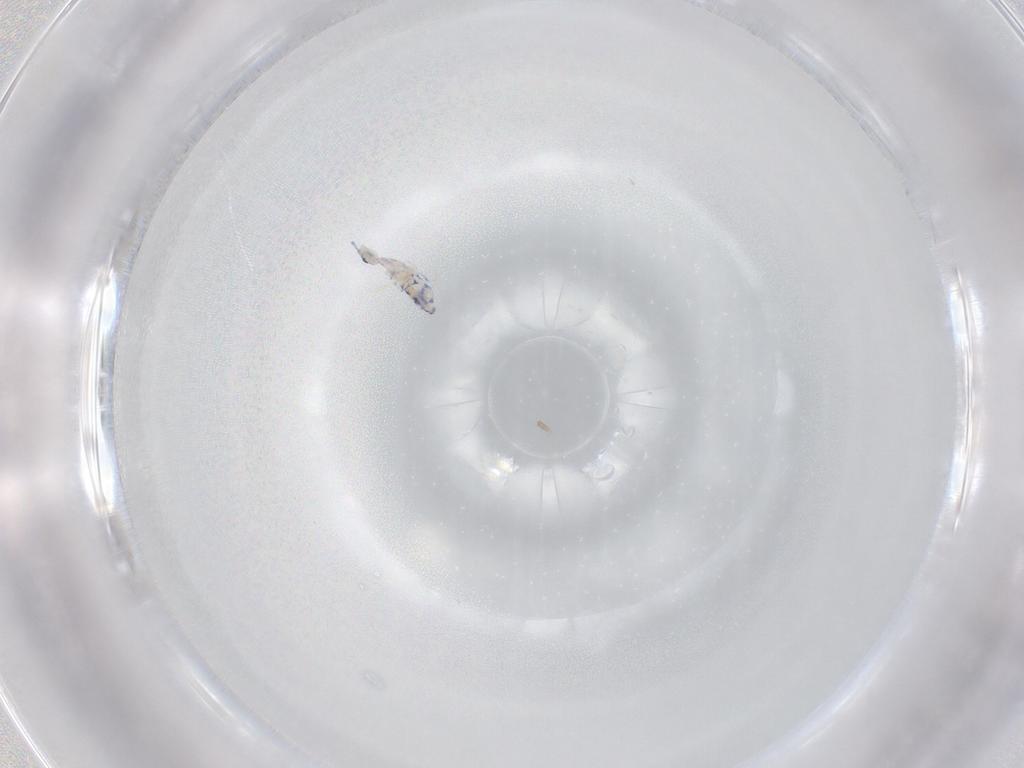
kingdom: Animalia
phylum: Arthropoda
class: Collembola
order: Entomobryomorpha
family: Entomobryidae
